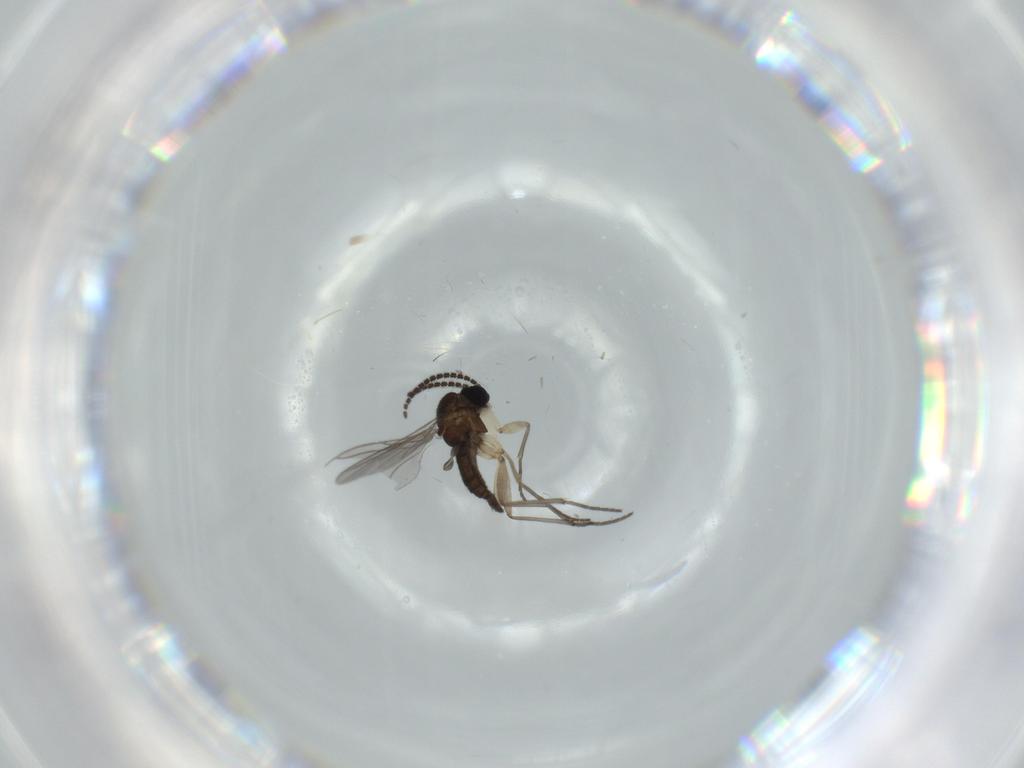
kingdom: Animalia
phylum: Arthropoda
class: Insecta
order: Diptera
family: Sciaridae
